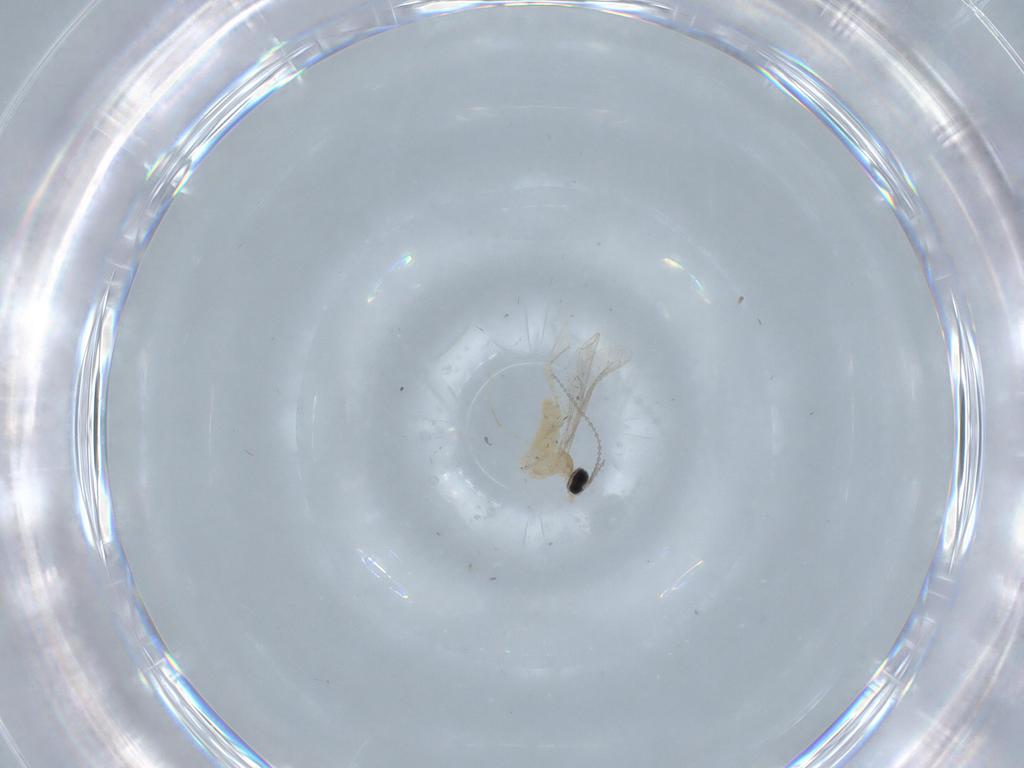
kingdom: Animalia
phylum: Arthropoda
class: Insecta
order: Diptera
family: Cecidomyiidae
